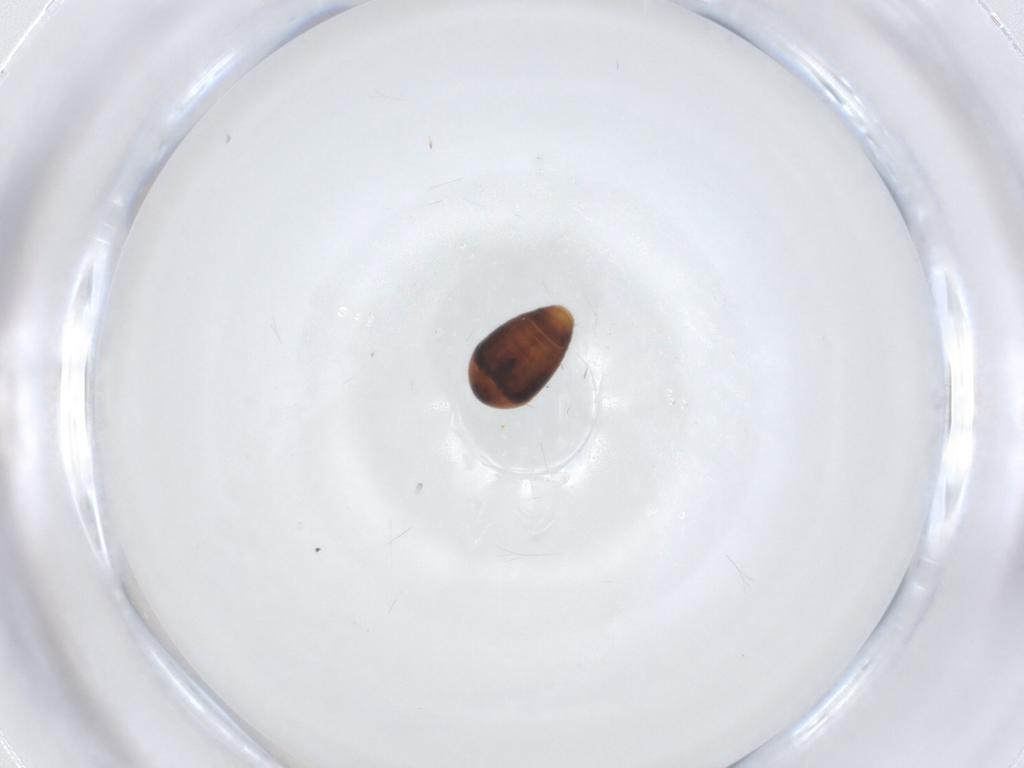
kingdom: Animalia
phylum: Arthropoda
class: Insecta
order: Coleoptera
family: Corylophidae
